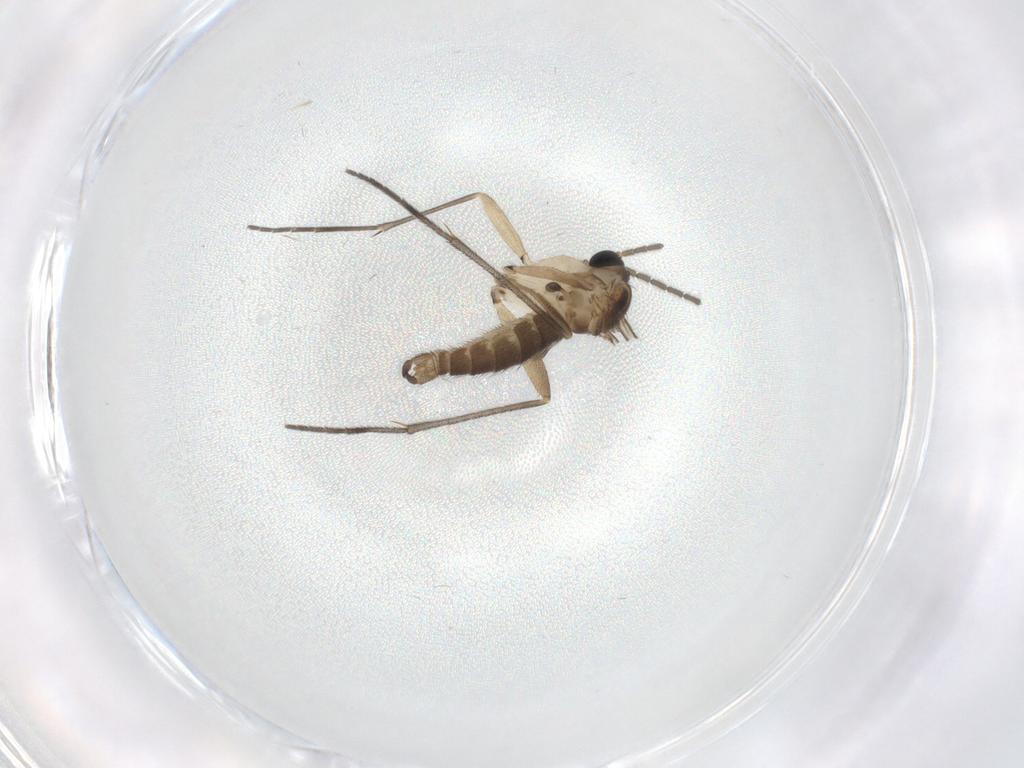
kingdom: Animalia
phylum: Arthropoda
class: Insecta
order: Diptera
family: Sciaridae
